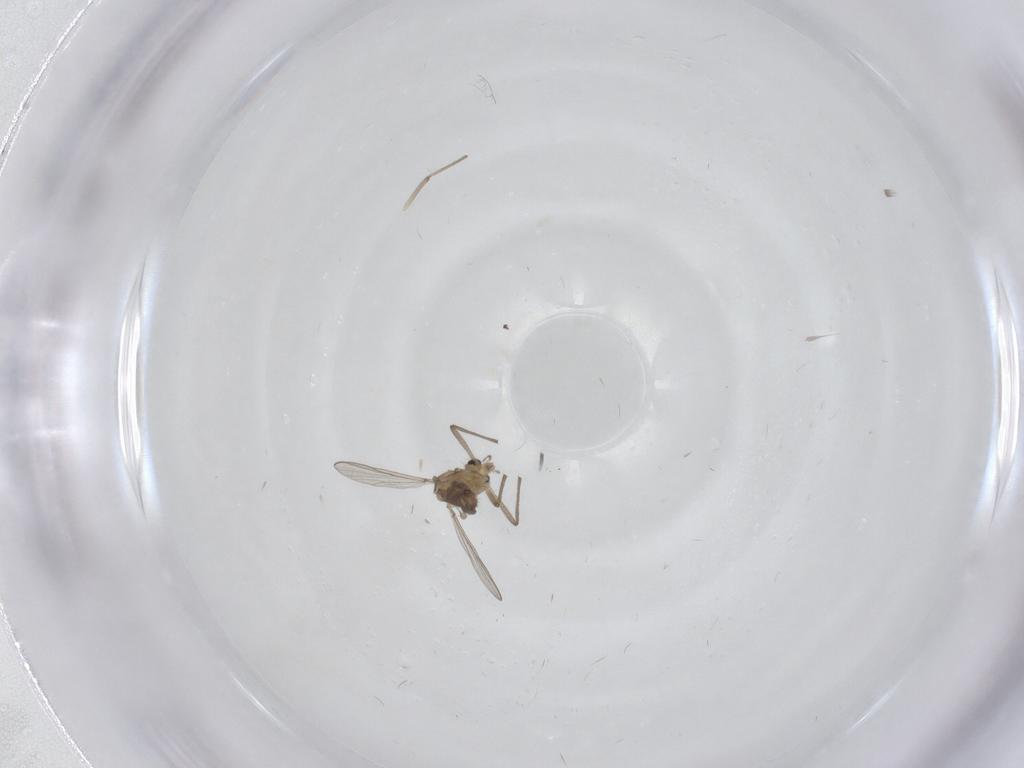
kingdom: Animalia
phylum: Arthropoda
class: Insecta
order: Diptera
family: Chironomidae
